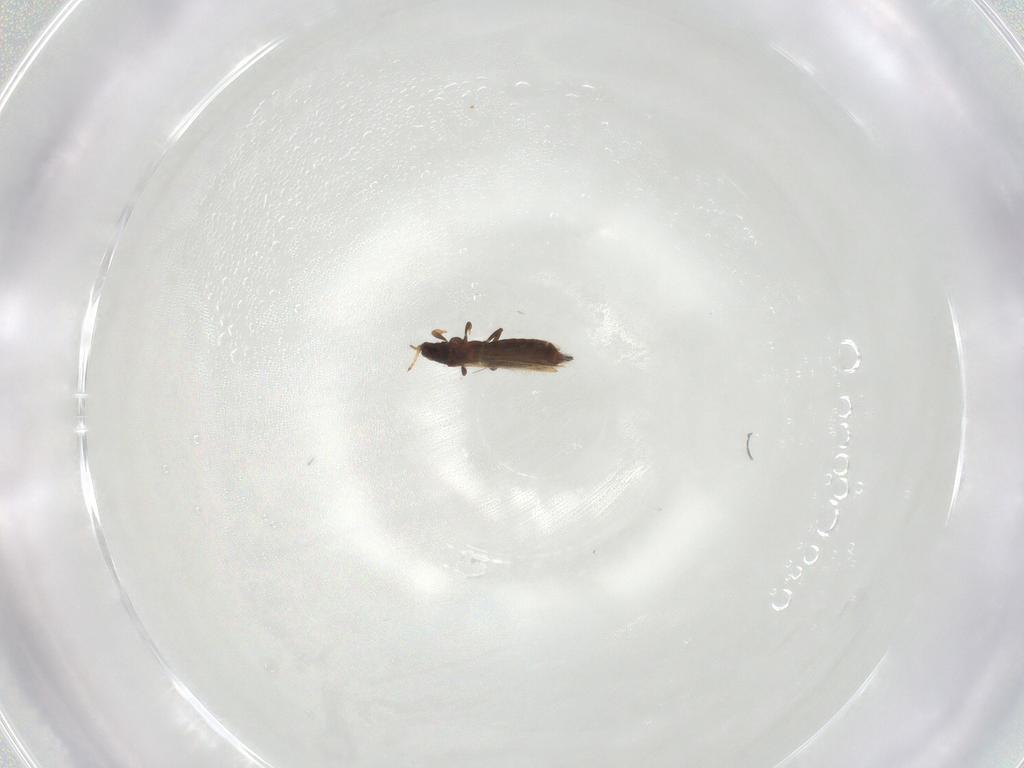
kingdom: Animalia
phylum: Arthropoda
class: Insecta
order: Thysanoptera
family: Thripidae
